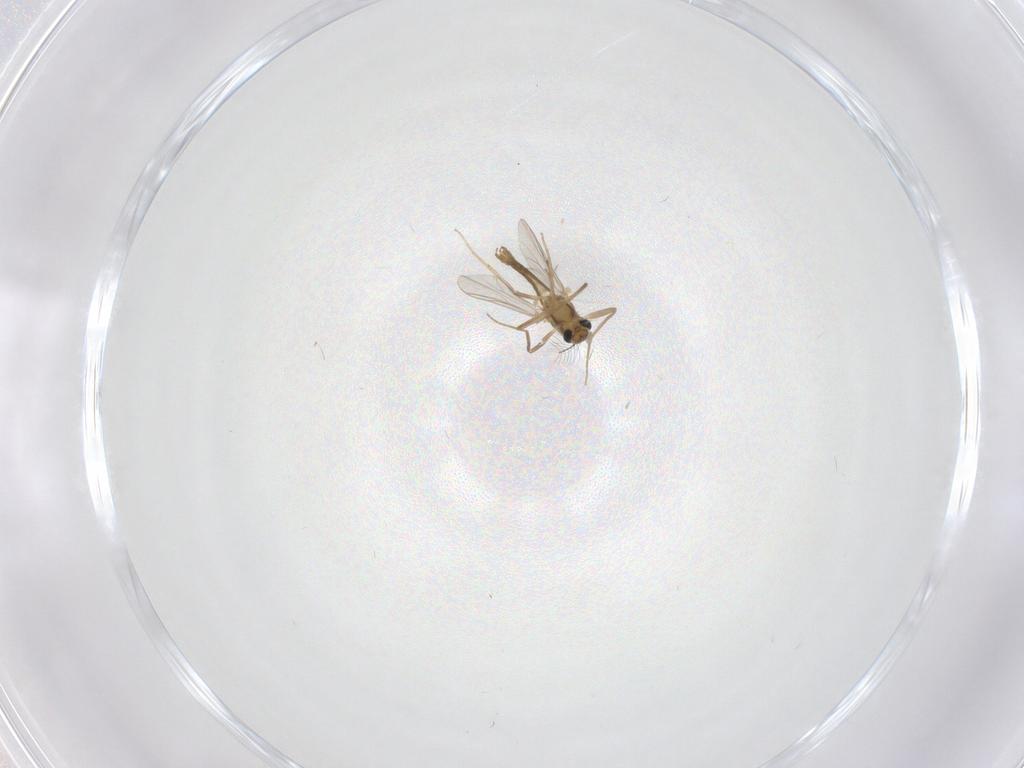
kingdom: Animalia
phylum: Arthropoda
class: Insecta
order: Diptera
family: Chironomidae
